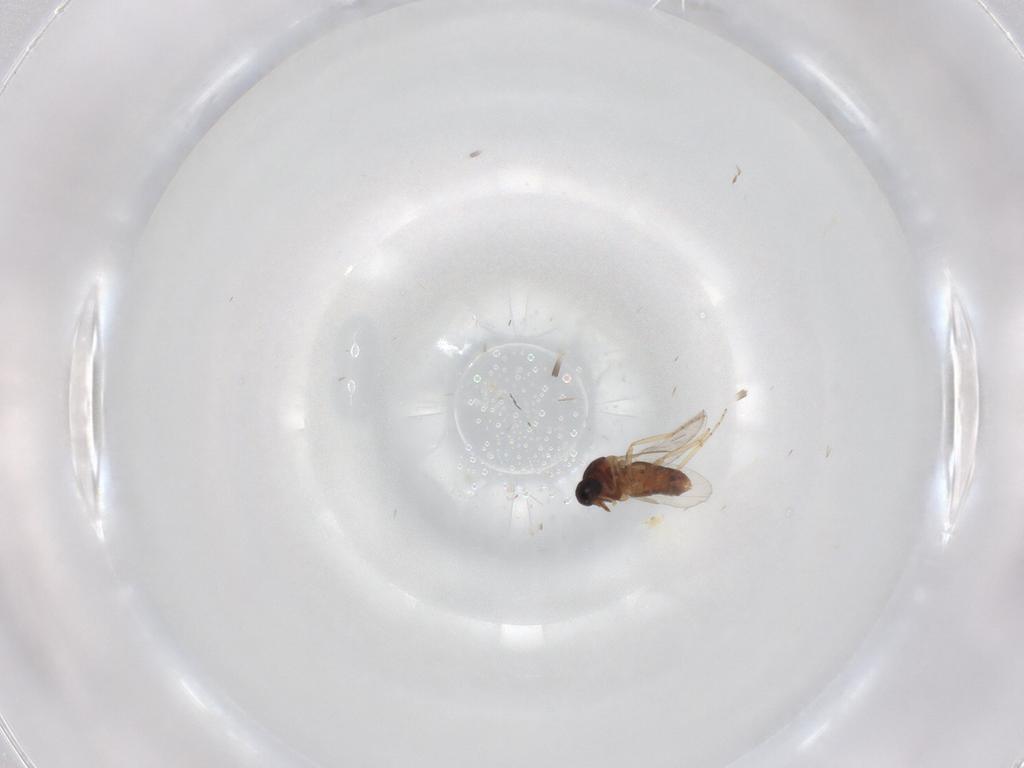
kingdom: Animalia
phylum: Arthropoda
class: Insecta
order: Diptera
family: Ceratopogonidae
